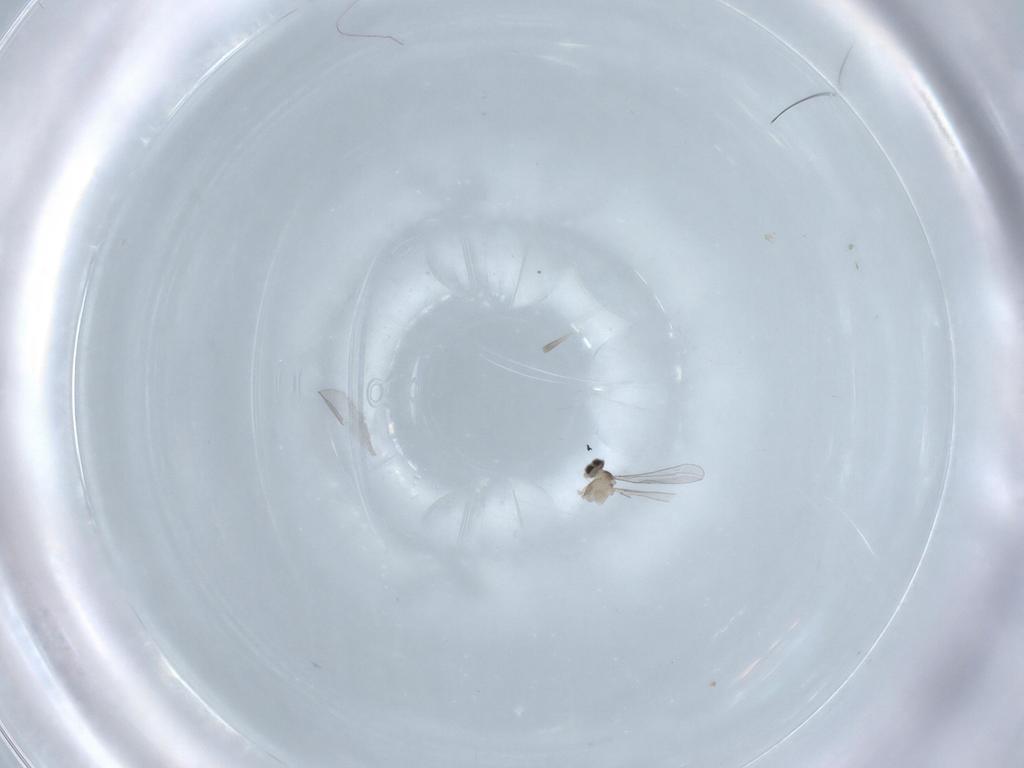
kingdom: Animalia
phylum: Arthropoda
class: Insecta
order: Diptera
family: Cecidomyiidae
